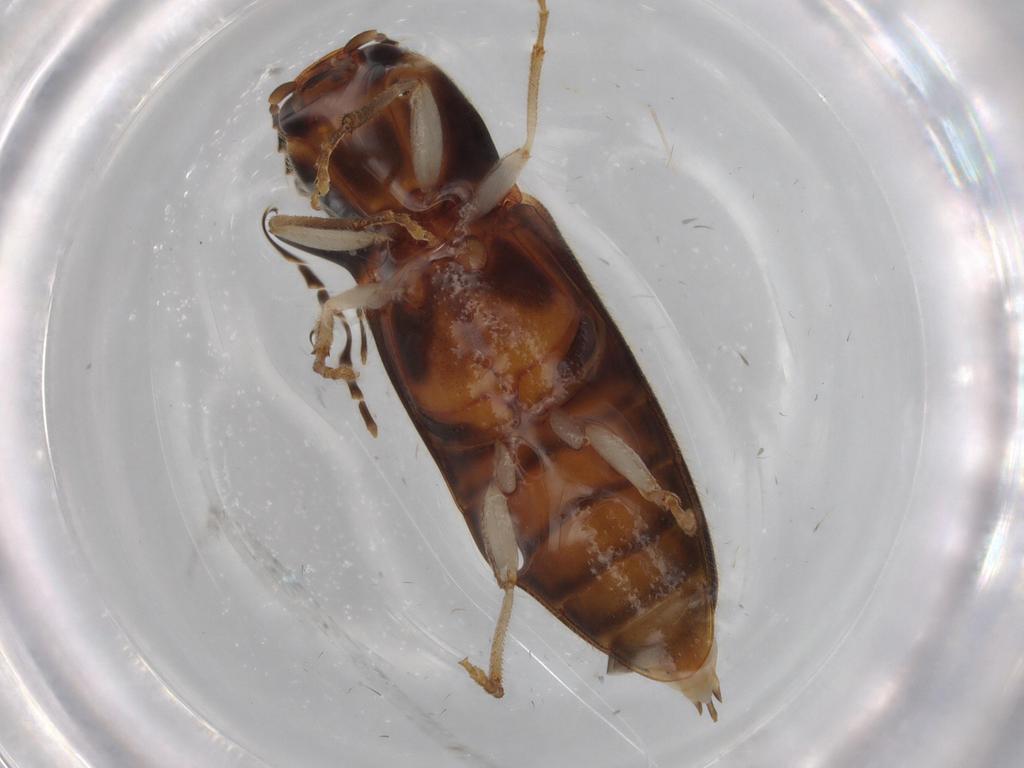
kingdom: Animalia
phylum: Arthropoda
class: Insecta
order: Coleoptera
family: Elateridae
